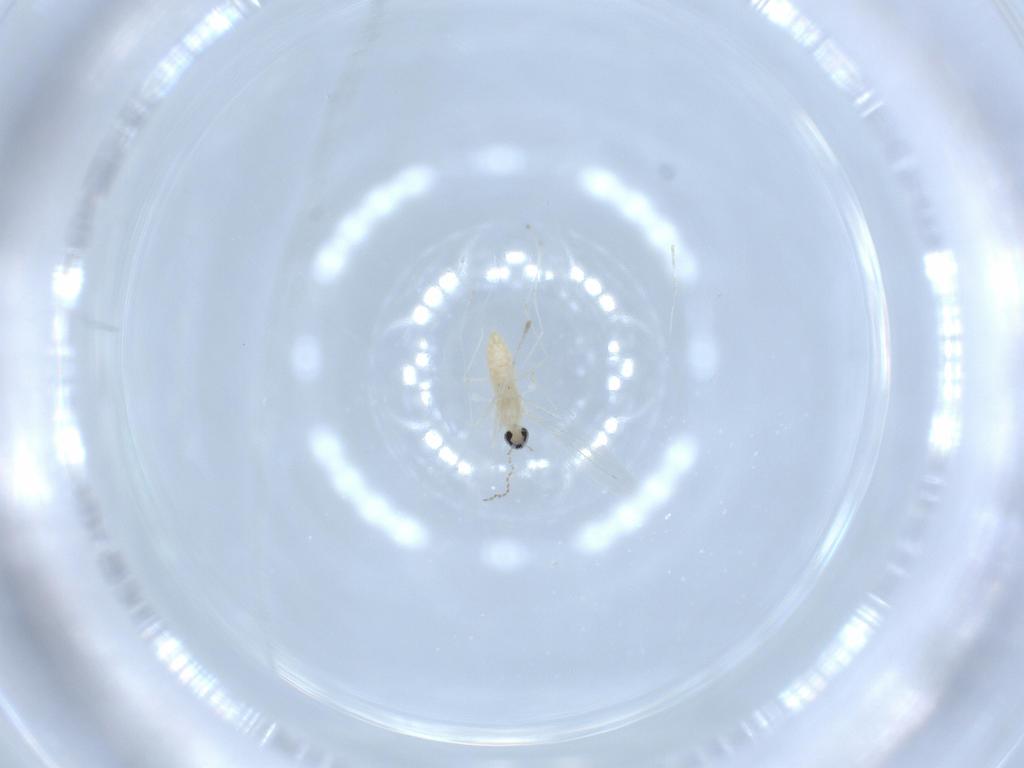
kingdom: Animalia
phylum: Arthropoda
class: Insecta
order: Diptera
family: Cecidomyiidae
